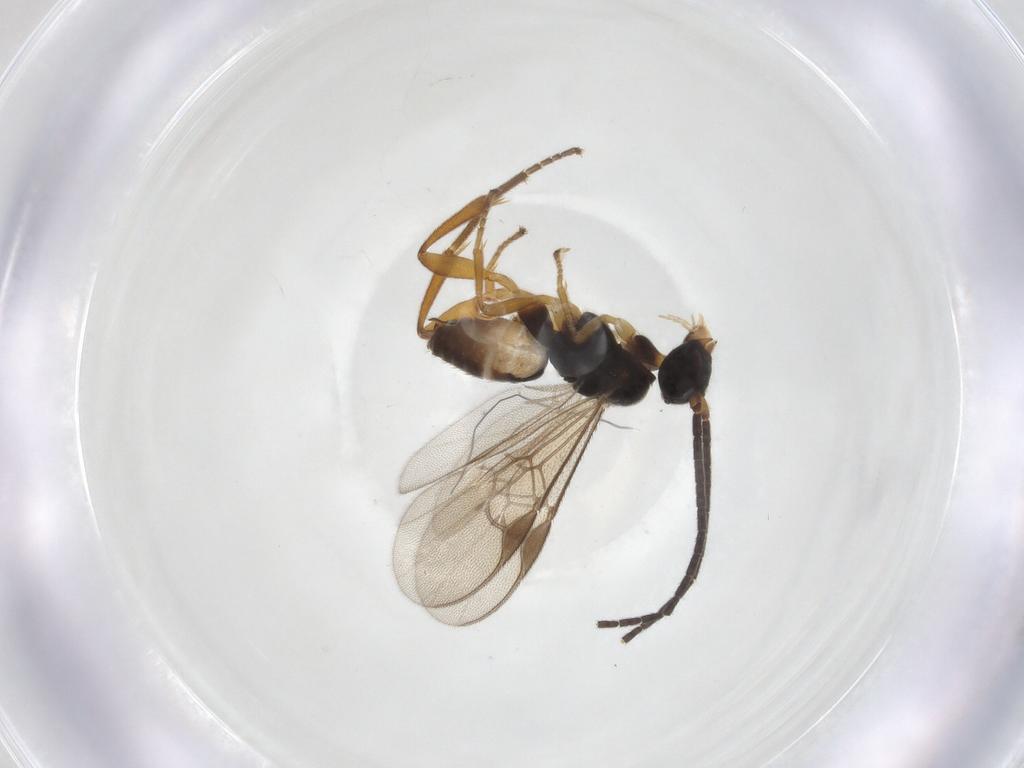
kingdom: Animalia
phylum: Arthropoda
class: Insecta
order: Hymenoptera
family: Braconidae
